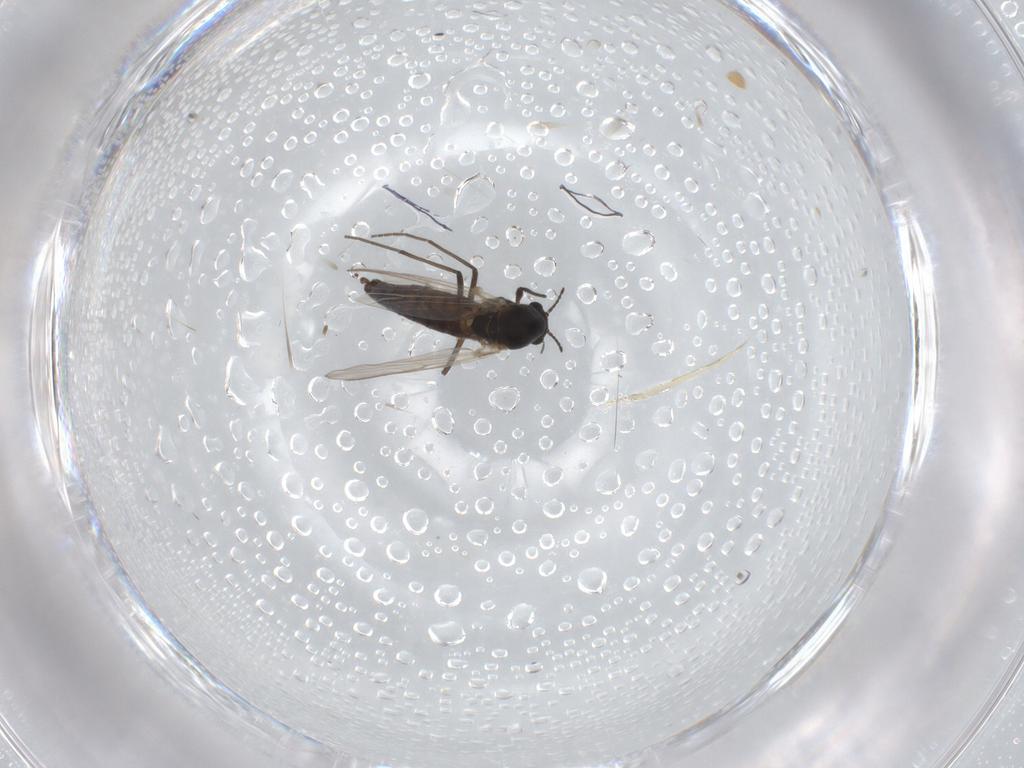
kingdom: Animalia
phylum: Arthropoda
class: Insecta
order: Diptera
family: Chironomidae
